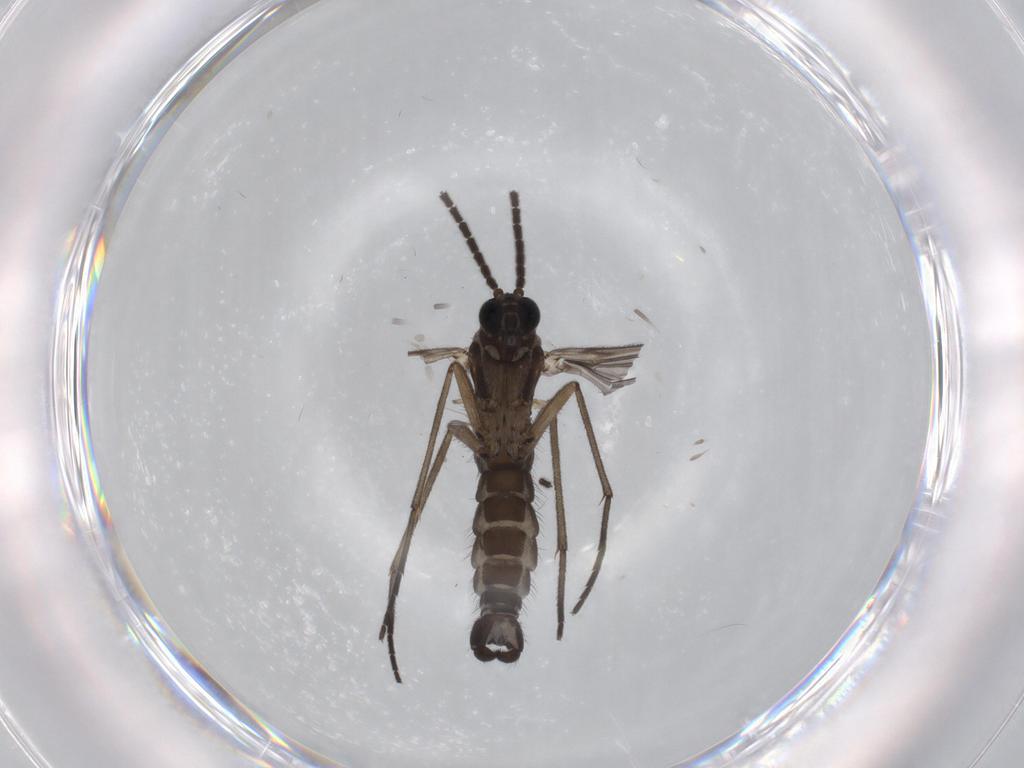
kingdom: Animalia
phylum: Arthropoda
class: Insecta
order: Diptera
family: Sciaridae
